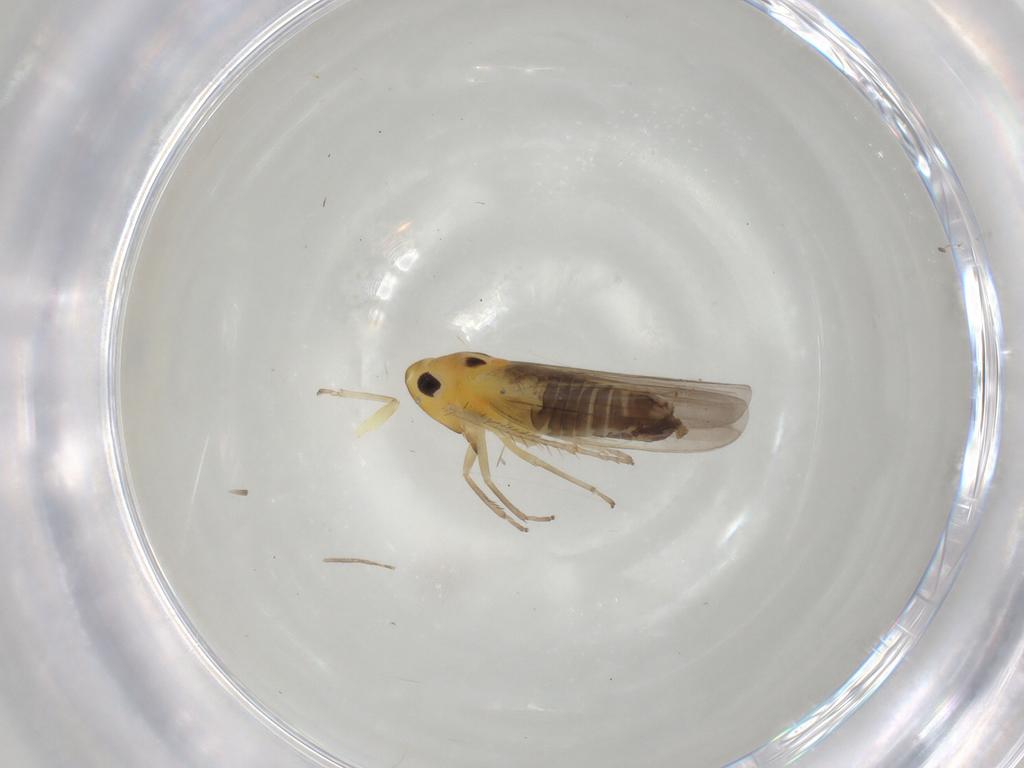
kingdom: Animalia
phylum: Arthropoda
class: Insecta
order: Hemiptera
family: Cicadellidae
